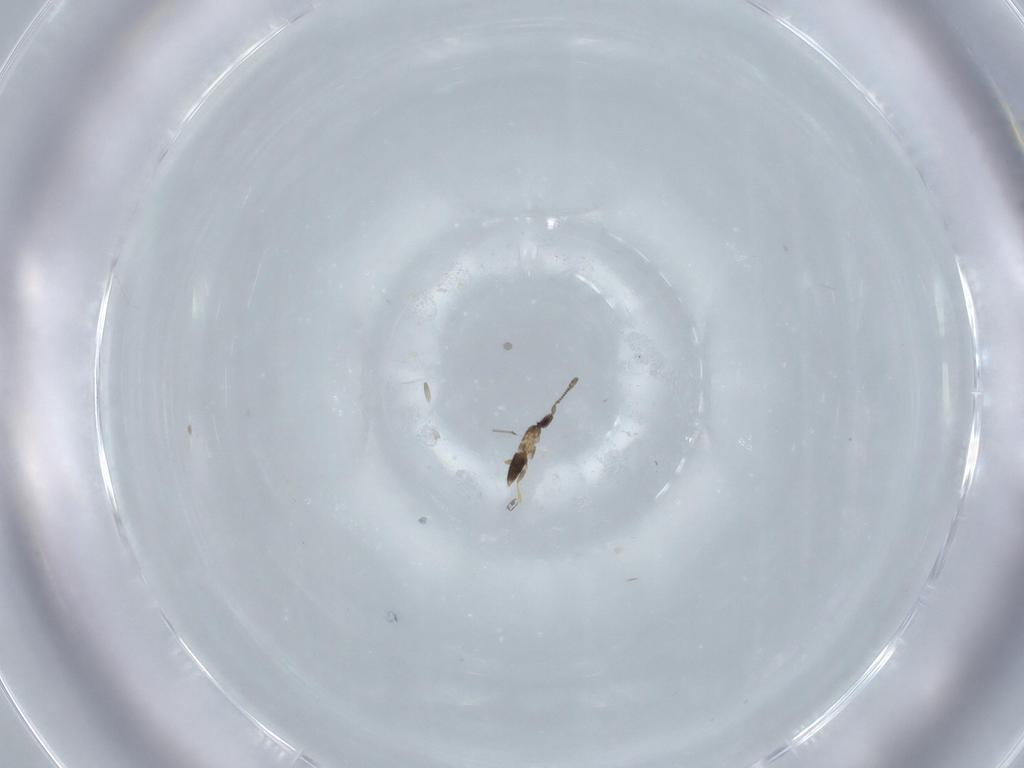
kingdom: Animalia
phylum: Arthropoda
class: Insecta
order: Hymenoptera
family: Mymaridae
